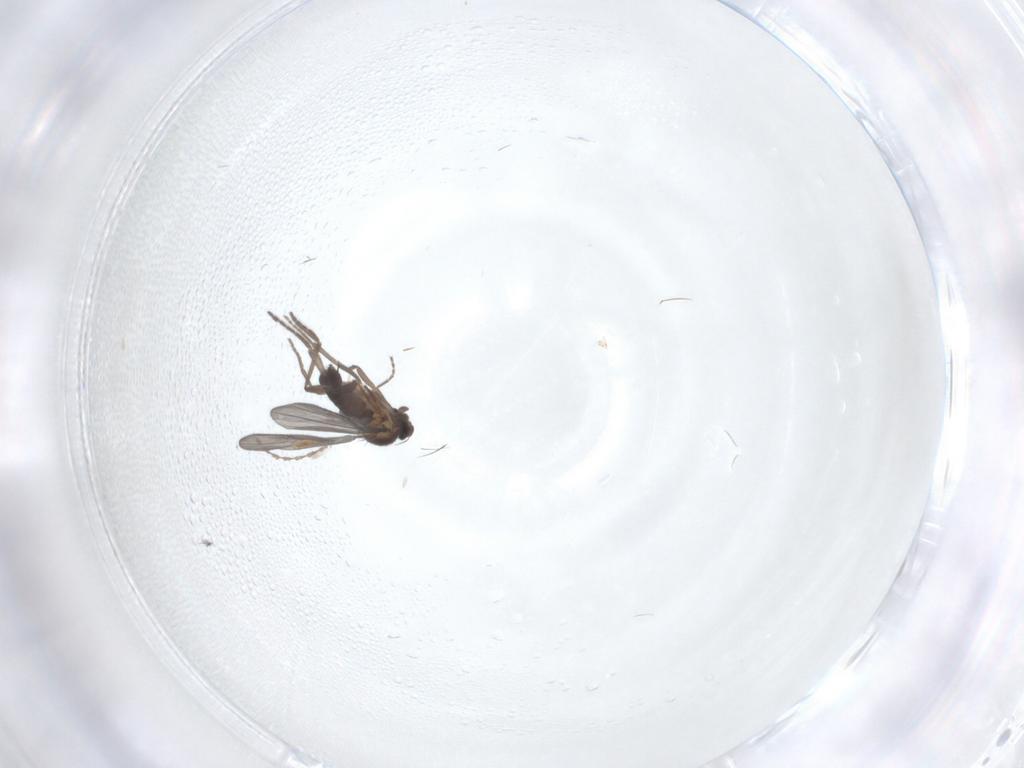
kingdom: Animalia
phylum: Arthropoda
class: Insecta
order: Diptera
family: Cecidomyiidae
